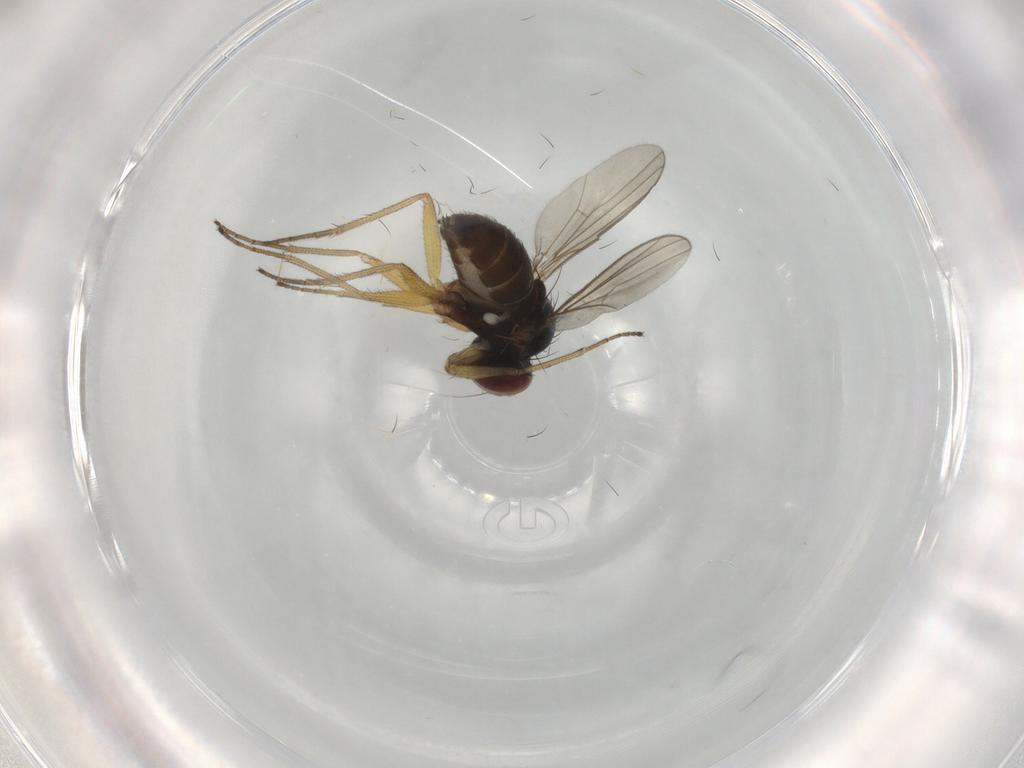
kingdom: Animalia
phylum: Arthropoda
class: Insecta
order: Diptera
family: Dolichopodidae
